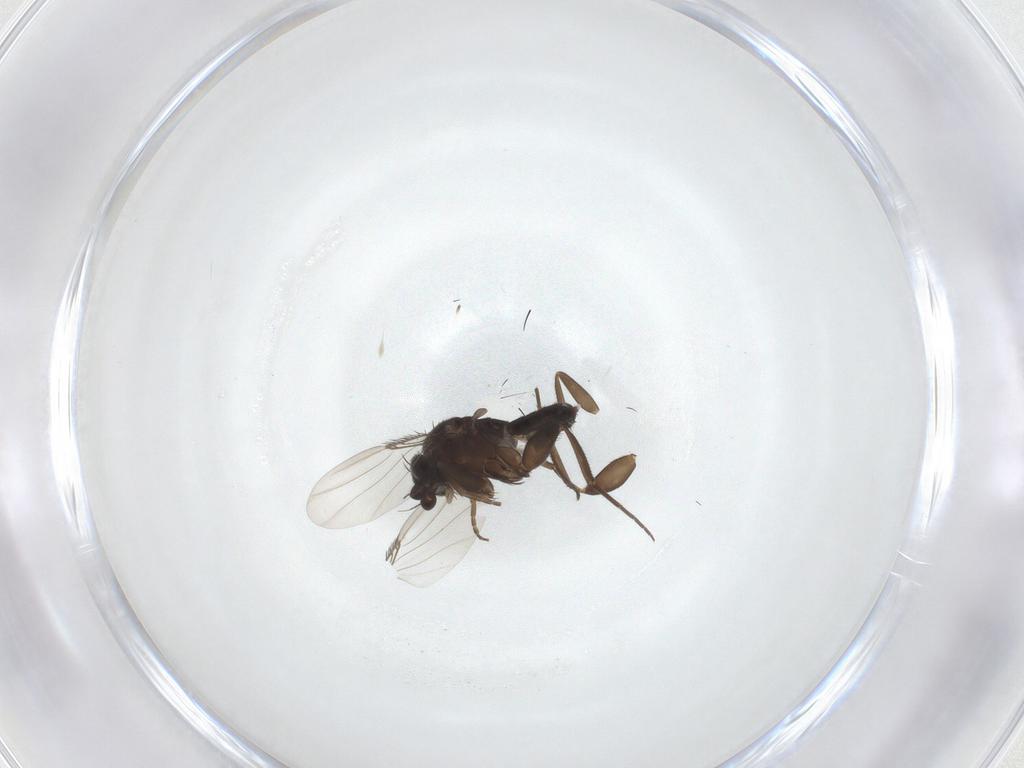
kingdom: Animalia
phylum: Arthropoda
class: Insecta
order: Diptera
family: Phoridae
